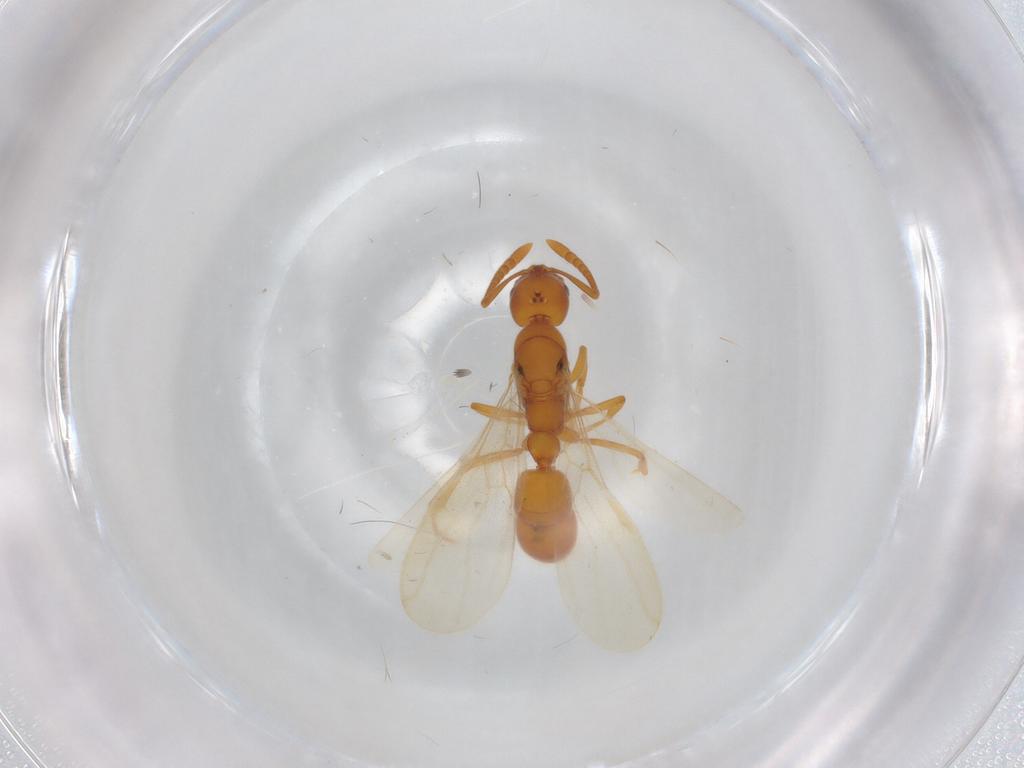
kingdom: Animalia
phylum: Arthropoda
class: Insecta
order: Hymenoptera
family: Formicidae
